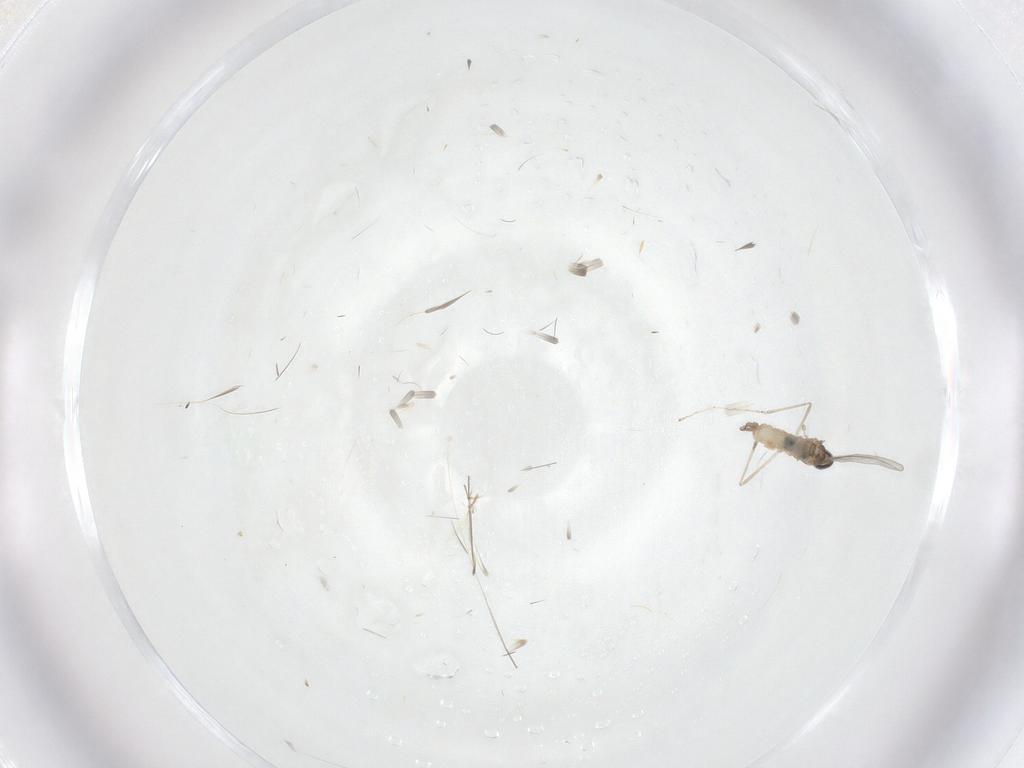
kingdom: Animalia
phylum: Arthropoda
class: Insecta
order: Diptera
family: Cecidomyiidae
